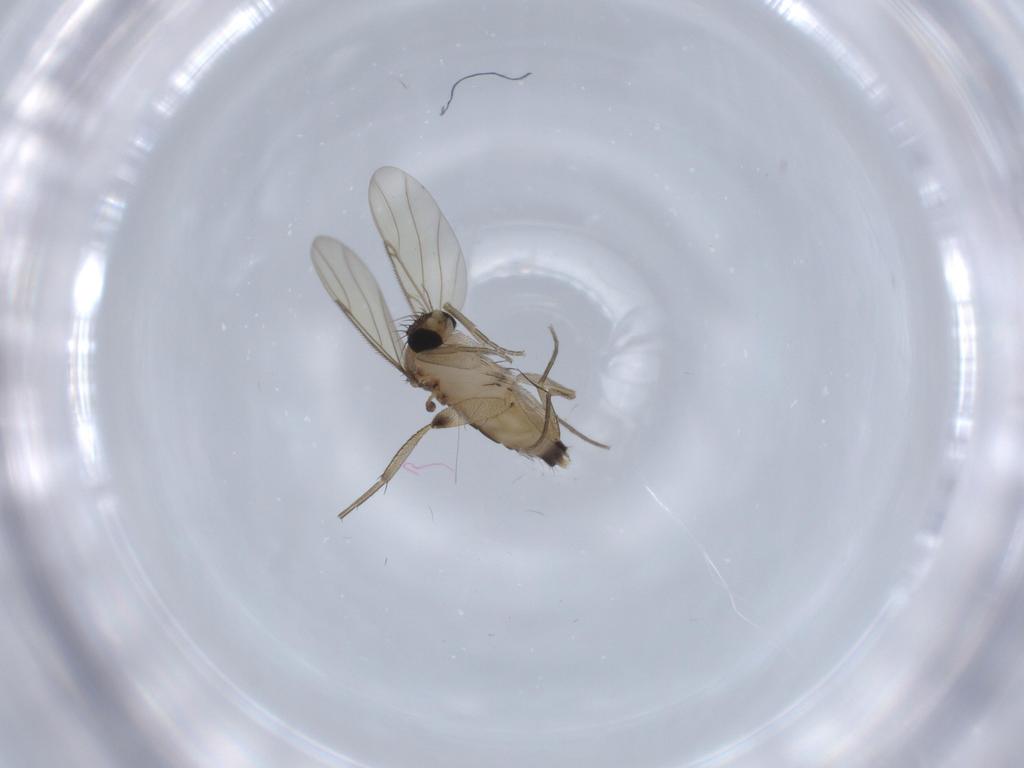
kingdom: Animalia
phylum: Arthropoda
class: Insecta
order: Diptera
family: Phoridae
